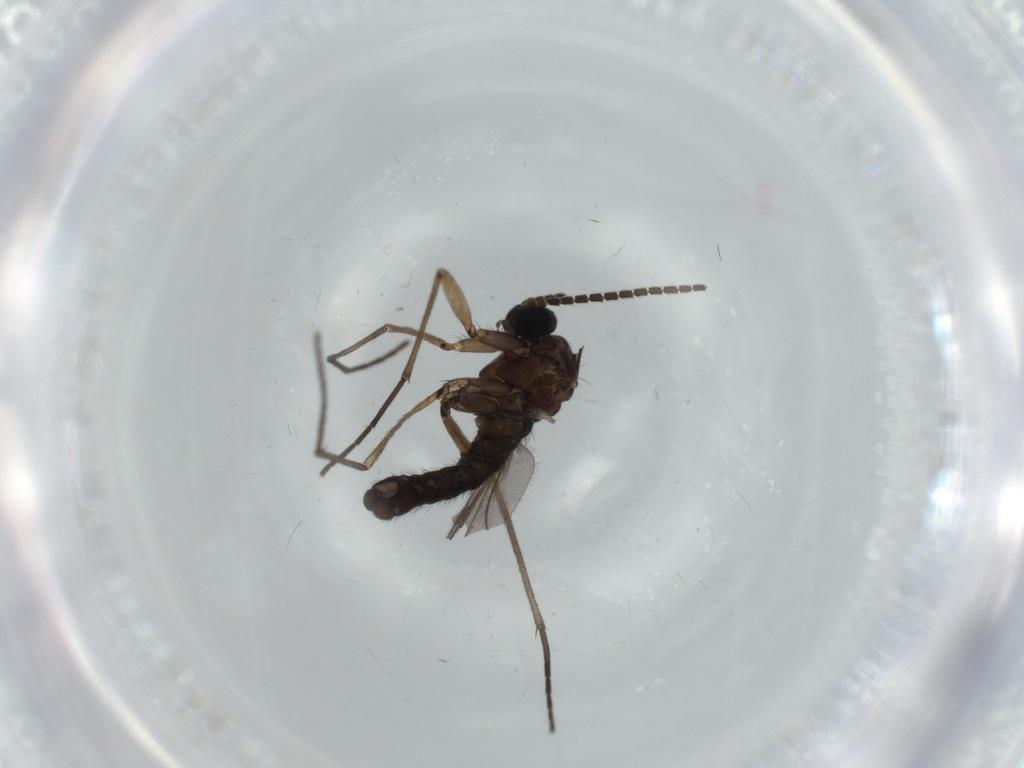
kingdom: Animalia
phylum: Arthropoda
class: Insecta
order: Diptera
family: Sciaridae
